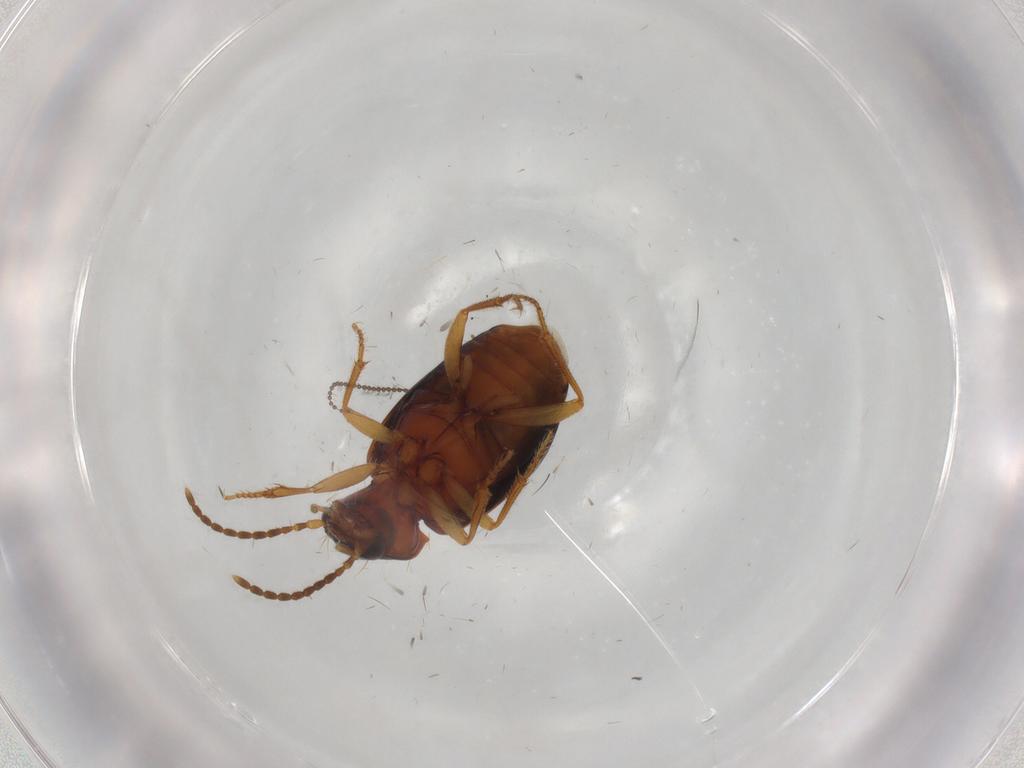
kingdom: Animalia
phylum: Arthropoda
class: Insecta
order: Coleoptera
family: Carabidae
